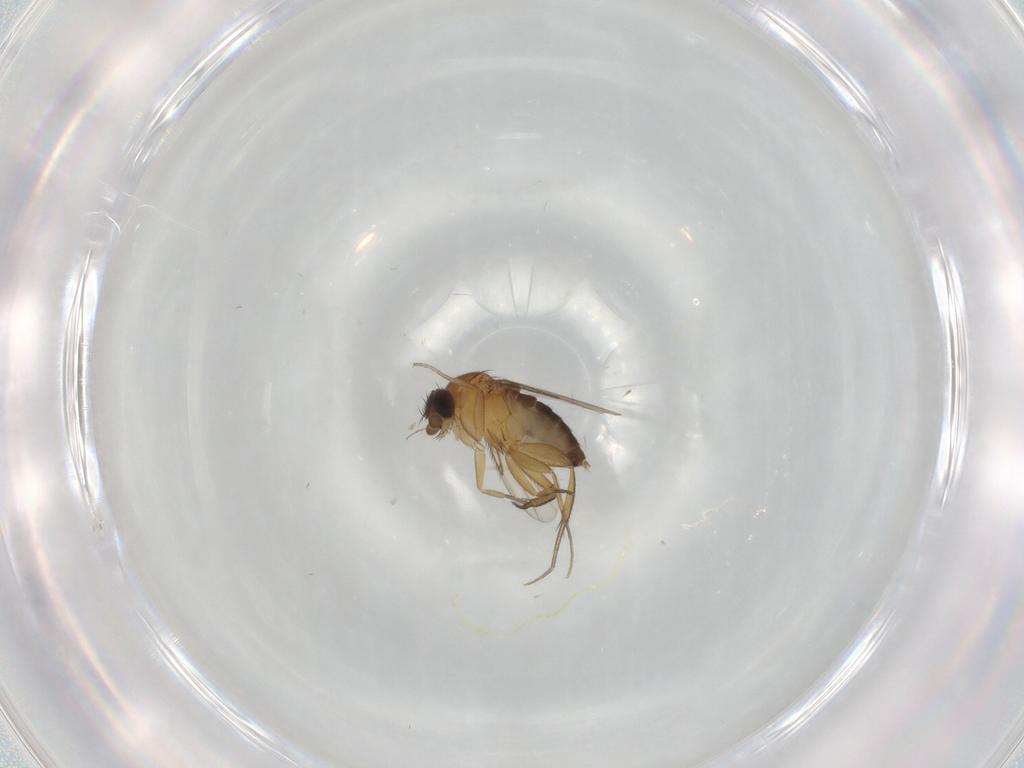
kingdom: Animalia
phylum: Arthropoda
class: Insecta
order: Diptera
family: Phoridae
